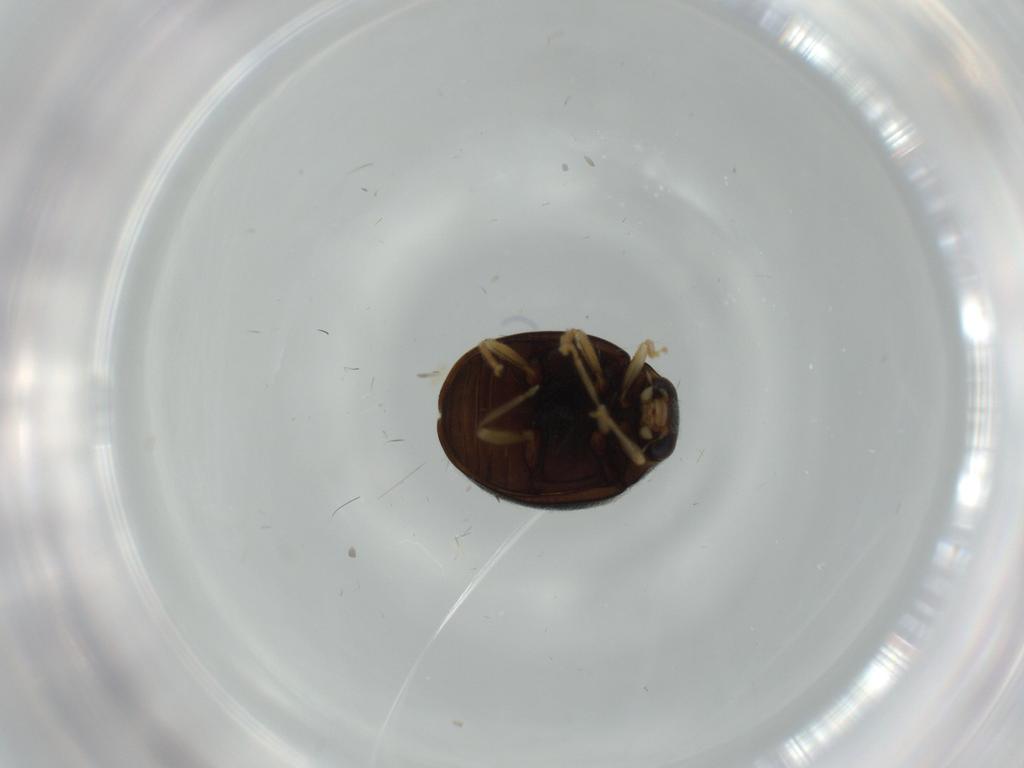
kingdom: Animalia
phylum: Arthropoda
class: Insecta
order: Coleoptera
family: Coccinellidae
